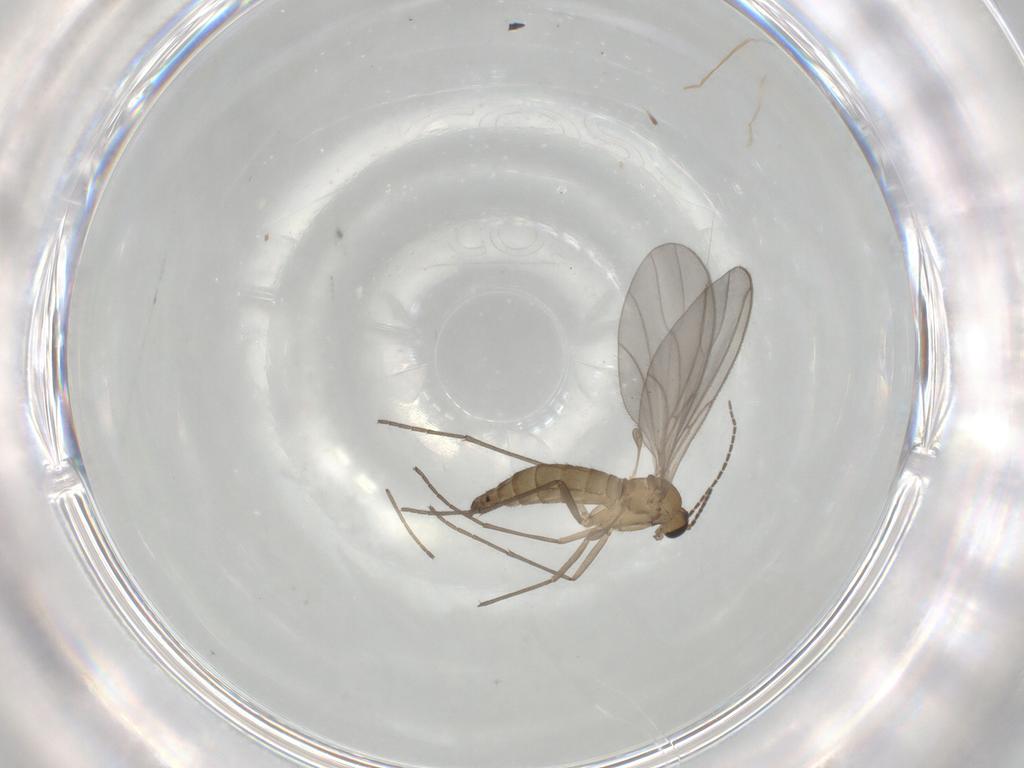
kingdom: Animalia
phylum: Arthropoda
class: Insecta
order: Diptera
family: Sciaridae
